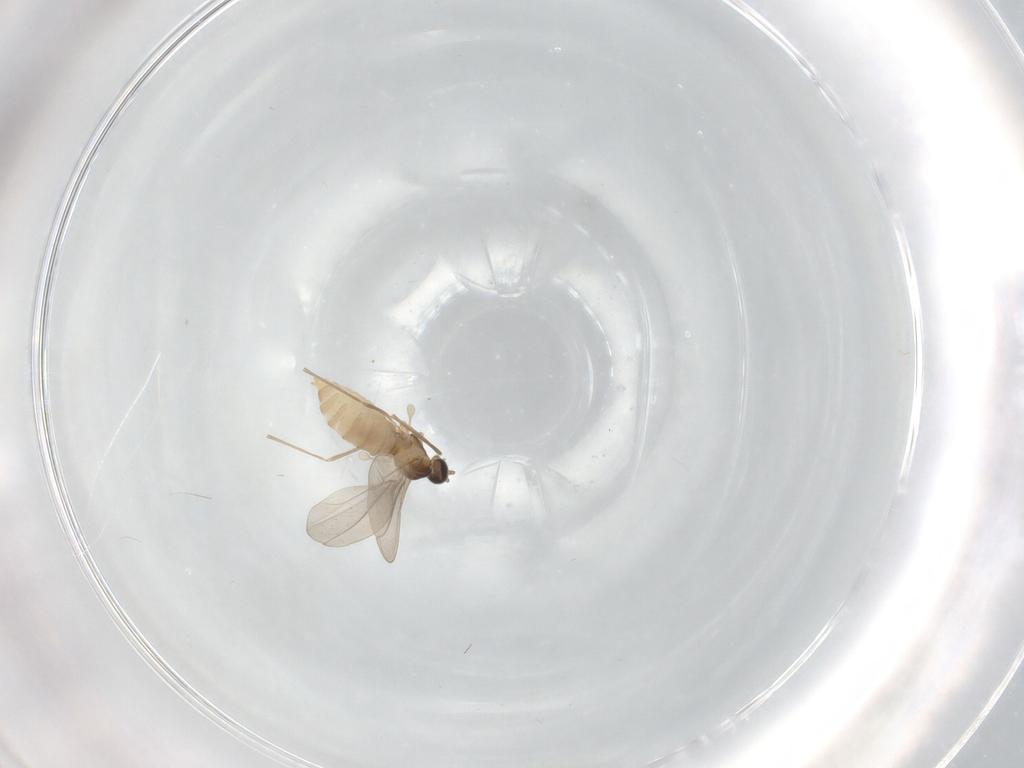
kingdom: Animalia
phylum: Arthropoda
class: Insecta
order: Diptera
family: Cecidomyiidae
